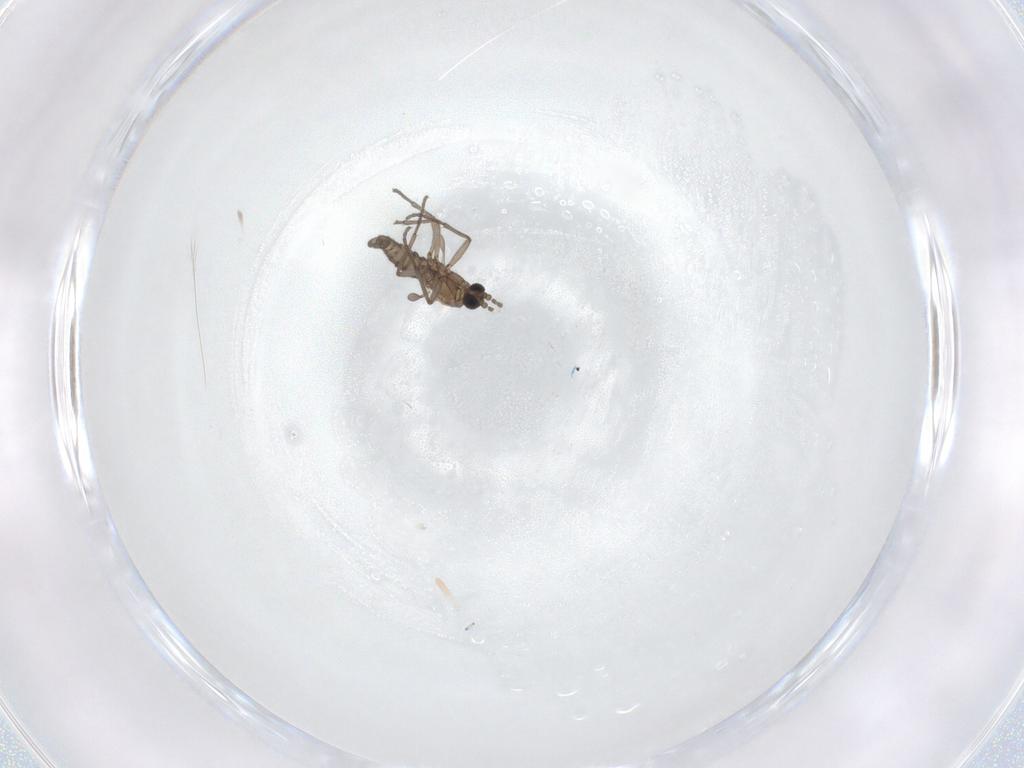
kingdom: Animalia
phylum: Arthropoda
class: Insecta
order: Diptera
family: Sciaridae
